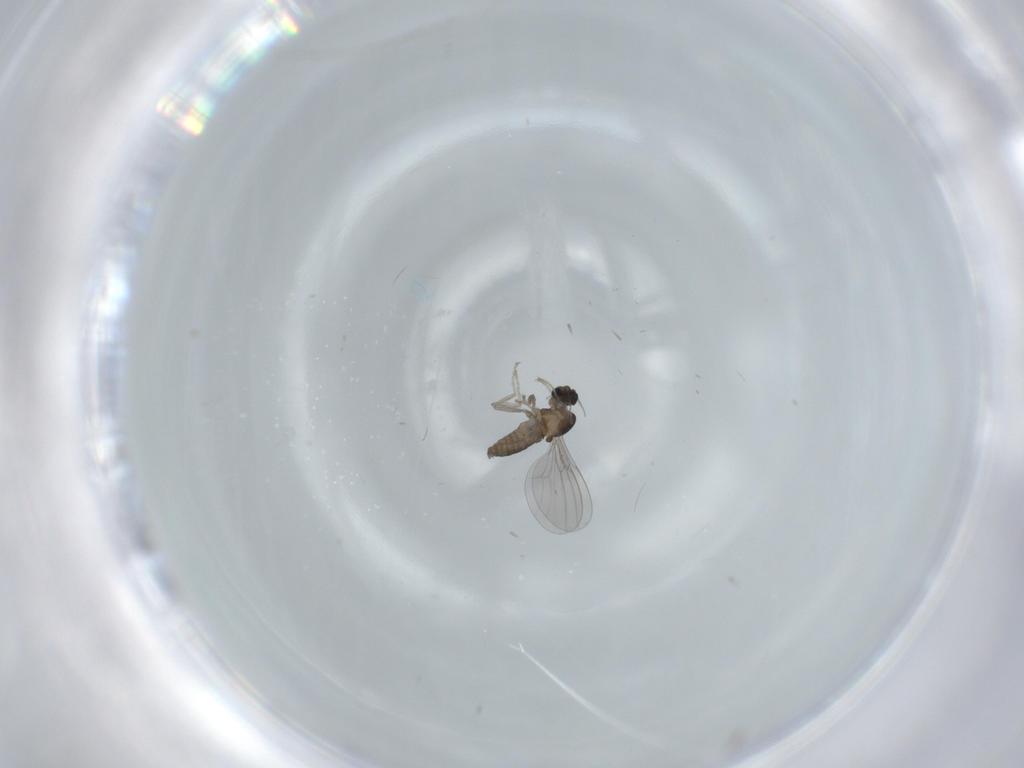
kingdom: Animalia
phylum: Arthropoda
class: Insecta
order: Diptera
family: Cecidomyiidae
